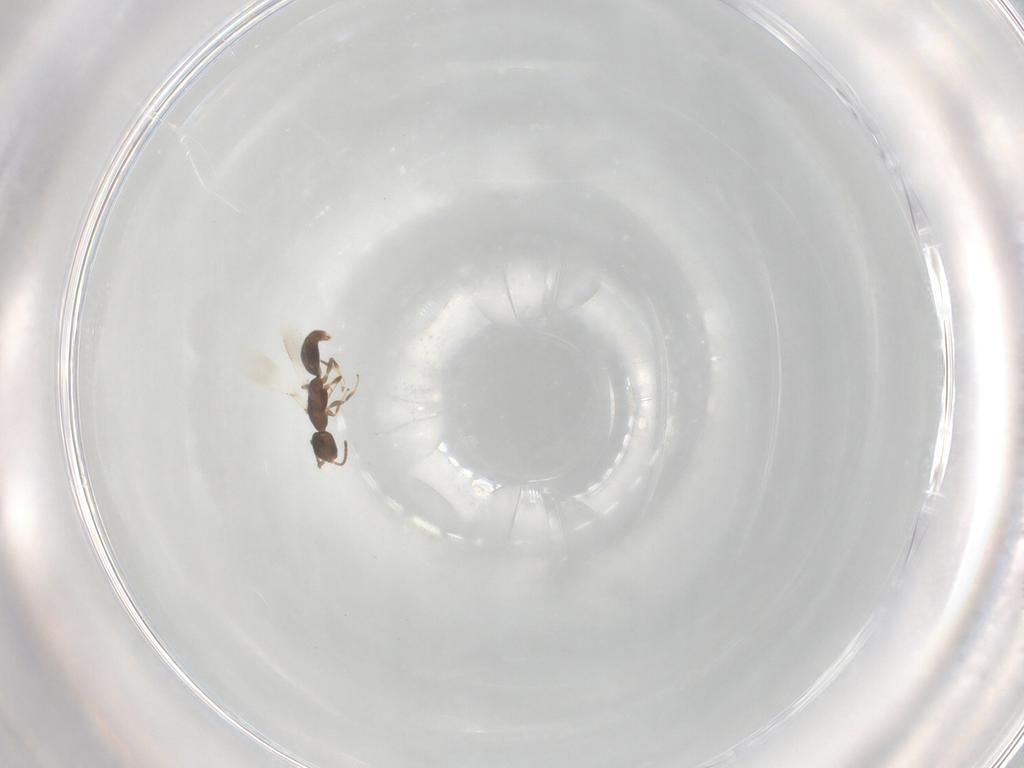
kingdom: Animalia
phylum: Arthropoda
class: Insecta
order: Hymenoptera
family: Bethylidae
